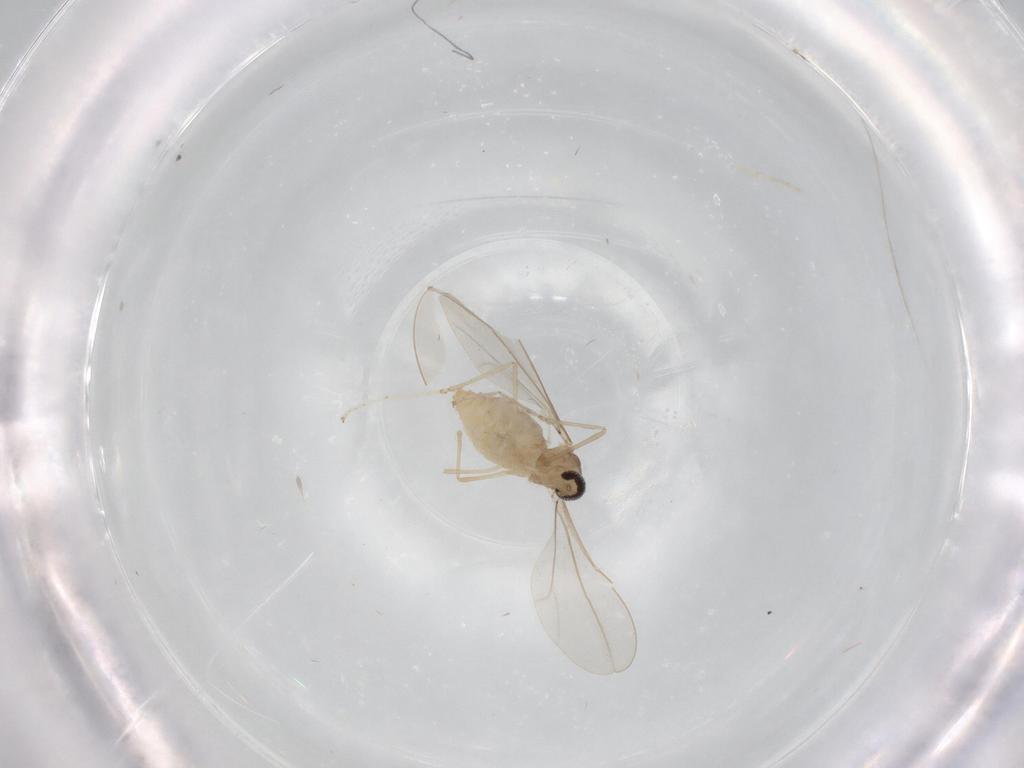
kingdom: Animalia
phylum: Arthropoda
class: Insecta
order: Diptera
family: Cecidomyiidae
